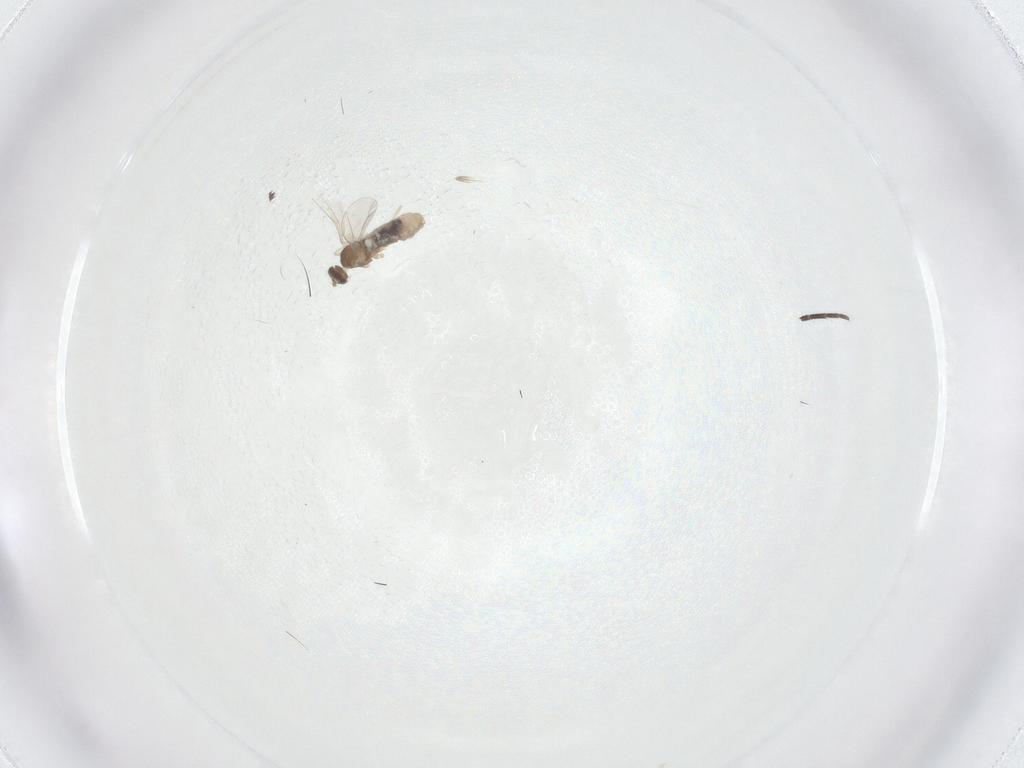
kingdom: Animalia
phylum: Arthropoda
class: Insecta
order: Diptera
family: Cecidomyiidae
